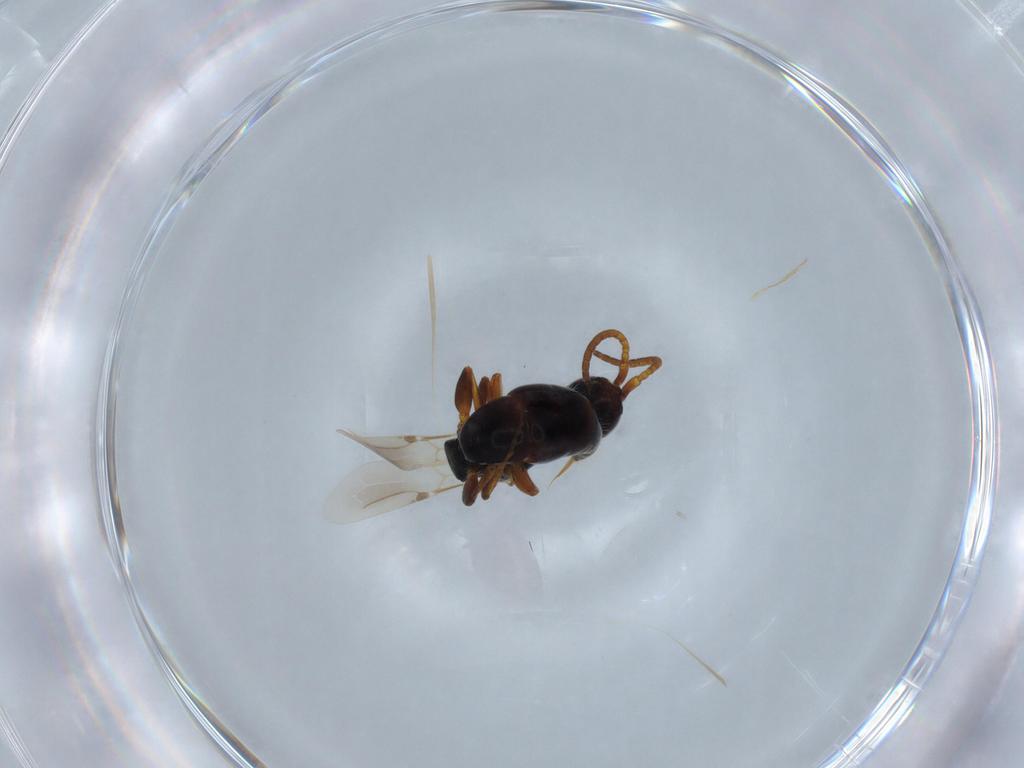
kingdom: Animalia
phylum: Arthropoda
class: Insecta
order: Hymenoptera
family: Bethylidae
